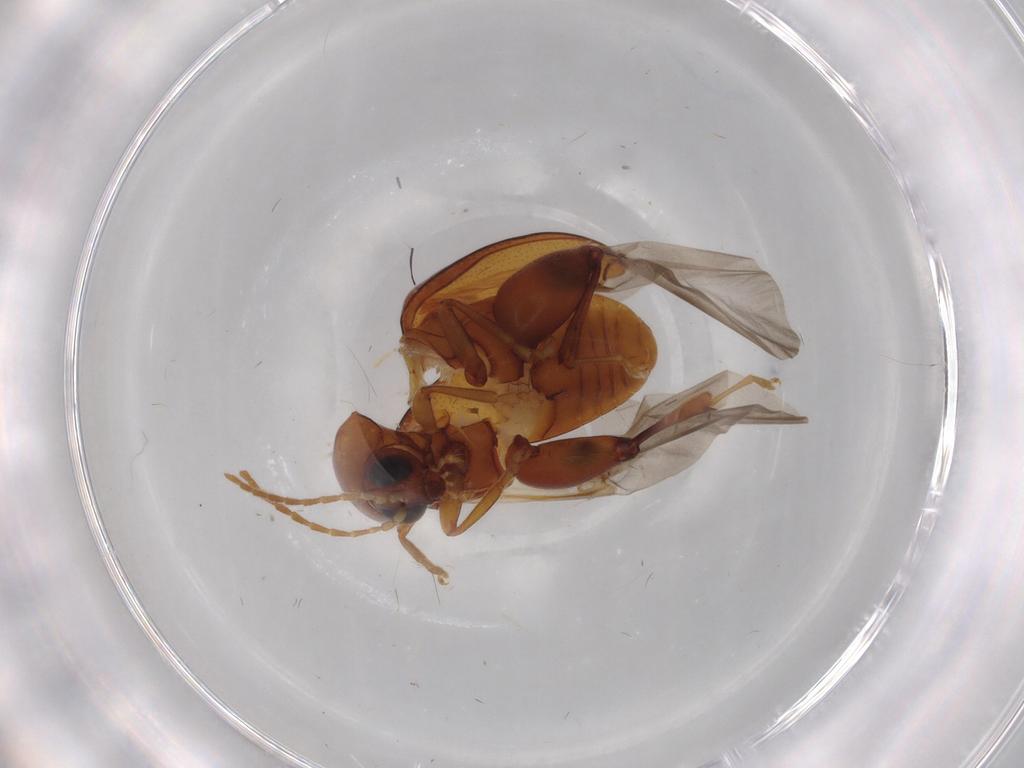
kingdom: Animalia
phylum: Arthropoda
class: Insecta
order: Coleoptera
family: Chrysomelidae
